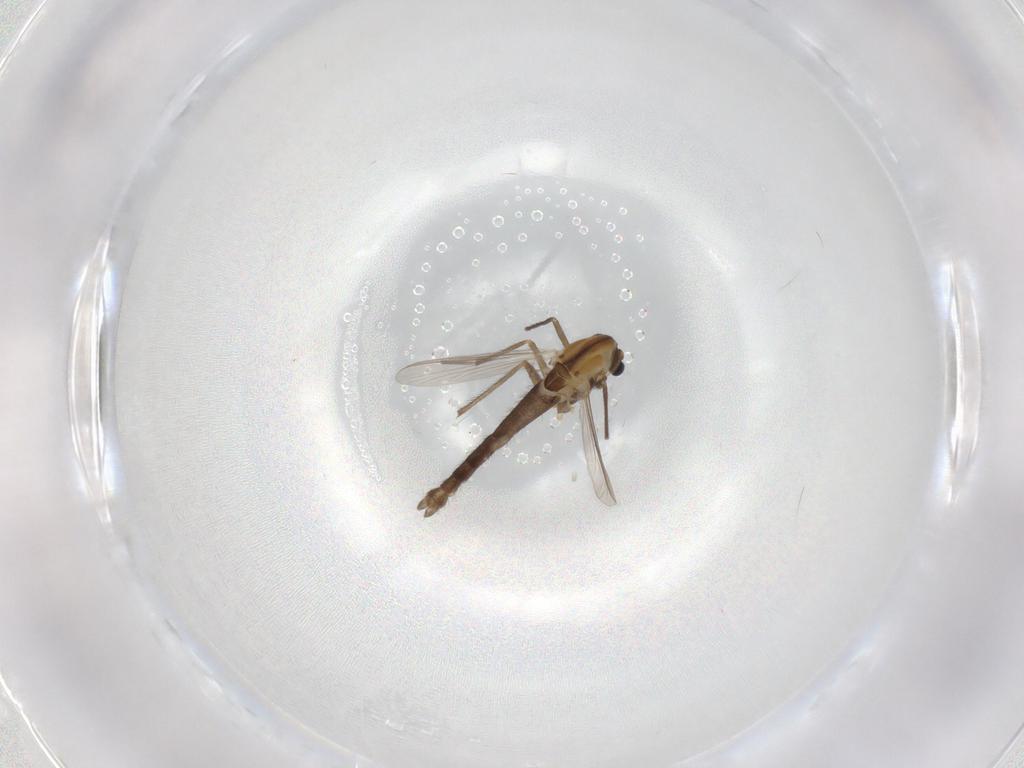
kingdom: Animalia
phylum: Arthropoda
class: Insecta
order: Diptera
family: Chironomidae
